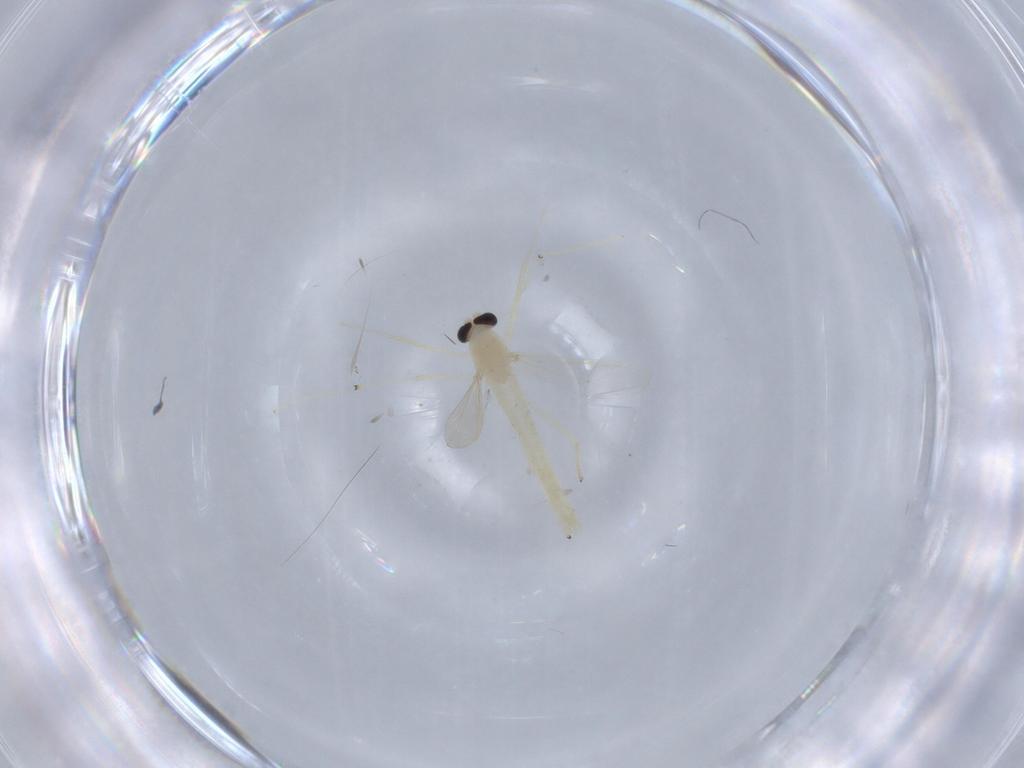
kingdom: Animalia
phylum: Arthropoda
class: Insecta
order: Diptera
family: Chironomidae
